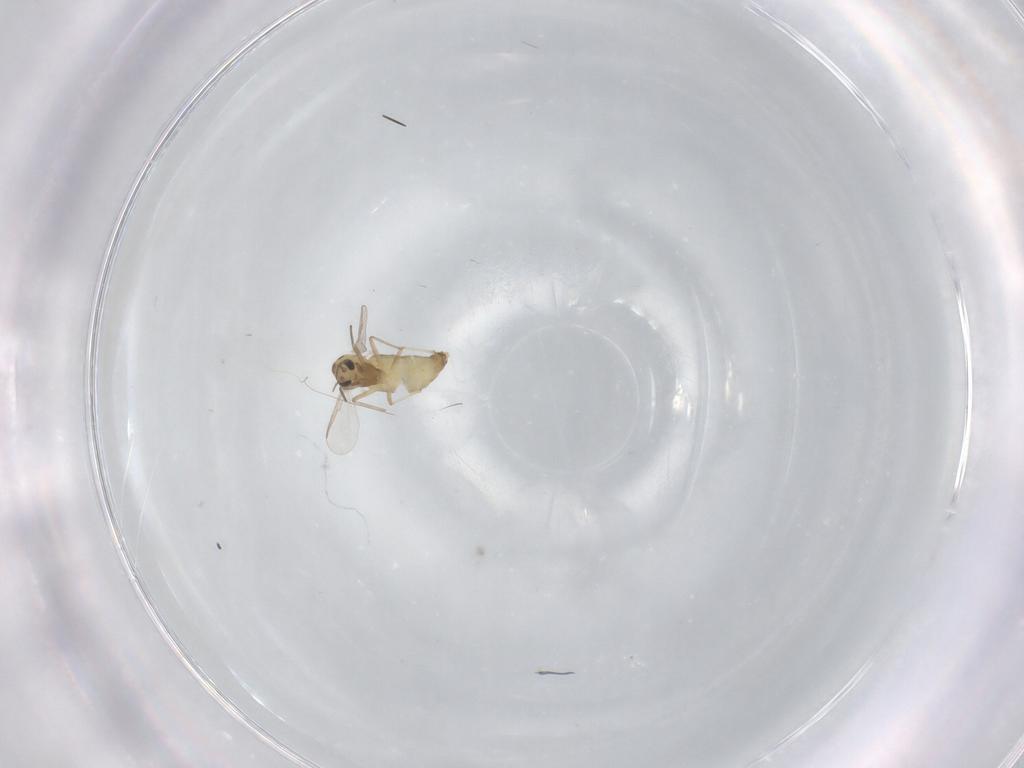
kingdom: Animalia
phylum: Arthropoda
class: Insecta
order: Diptera
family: Chironomidae
